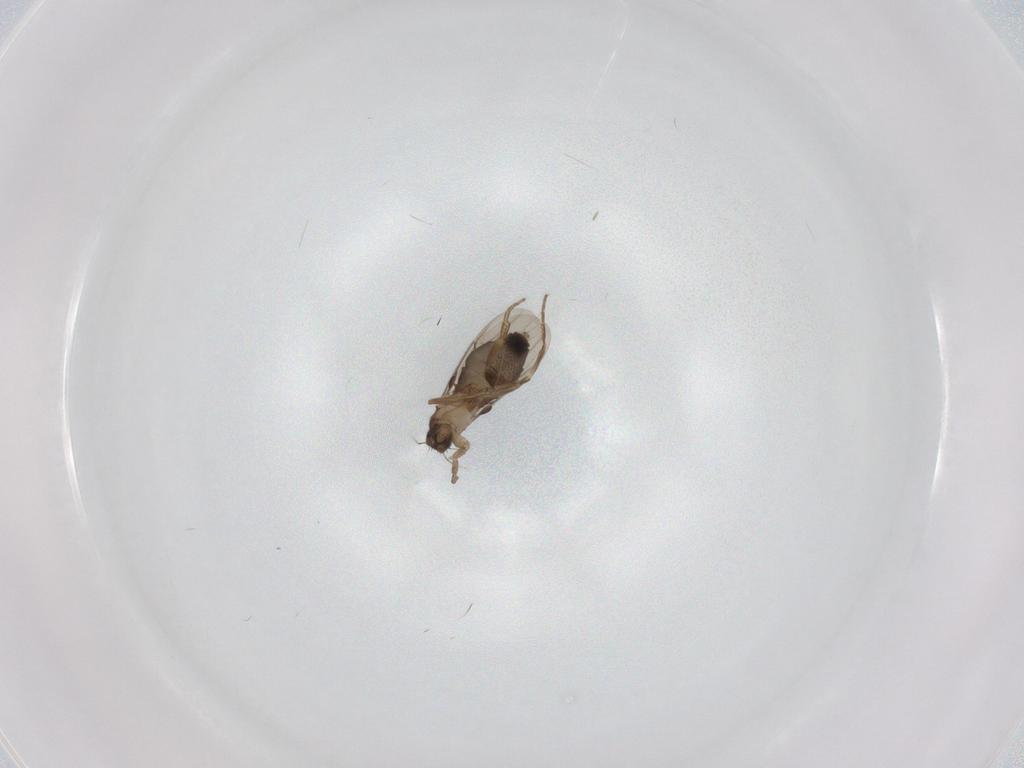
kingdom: Animalia
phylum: Arthropoda
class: Insecta
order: Diptera
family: Phoridae
